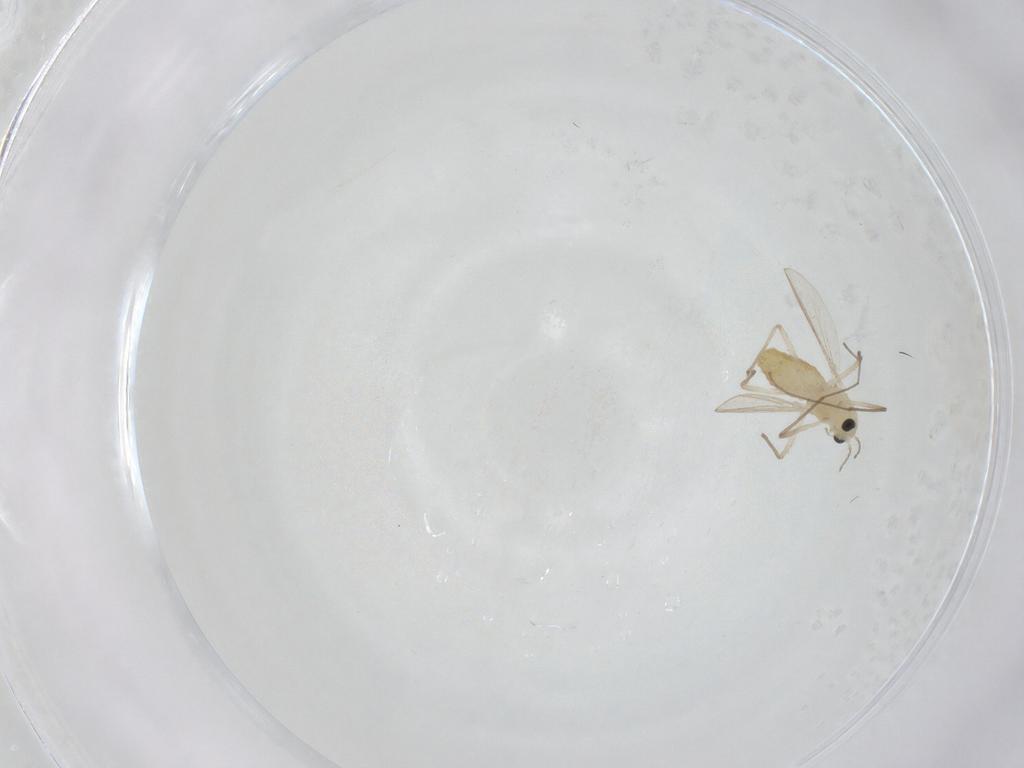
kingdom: Animalia
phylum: Arthropoda
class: Insecta
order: Diptera
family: Chironomidae
